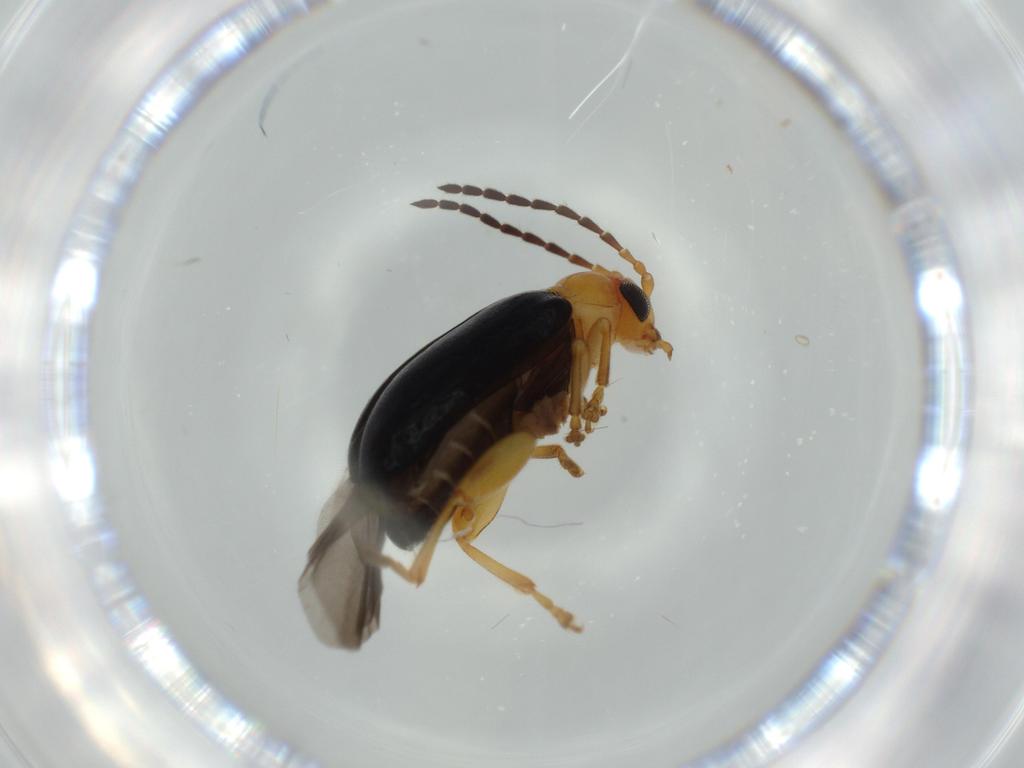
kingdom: Animalia
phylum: Arthropoda
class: Insecta
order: Coleoptera
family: Chrysomelidae
